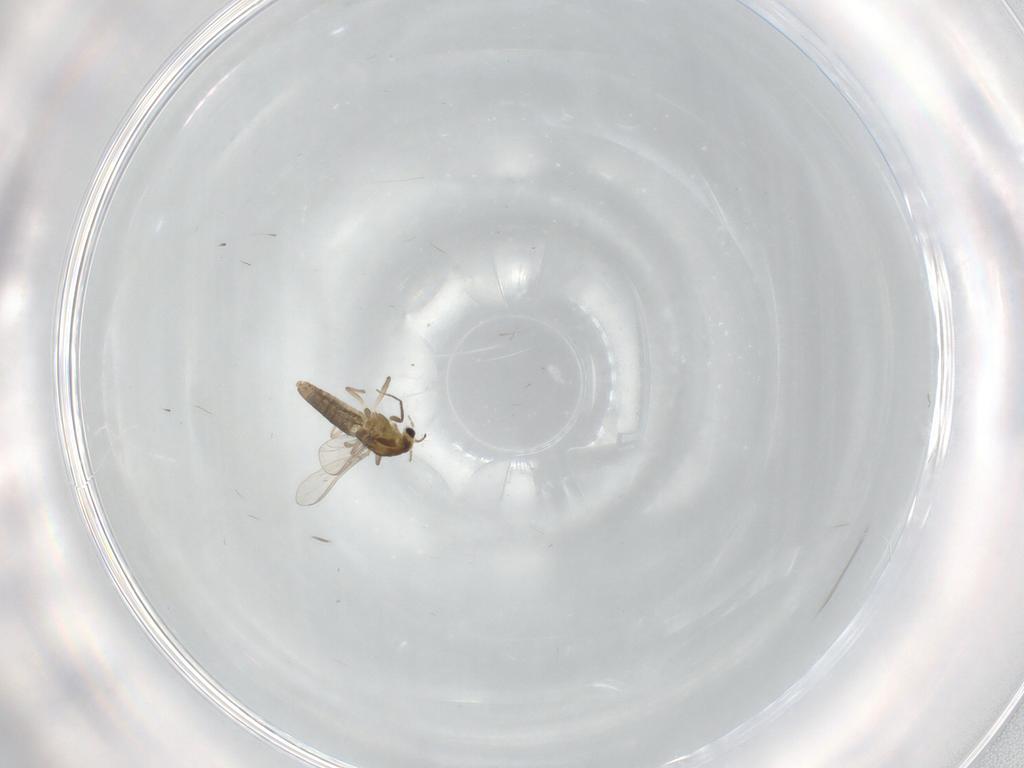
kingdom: Animalia
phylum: Arthropoda
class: Insecta
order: Diptera
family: Chironomidae
